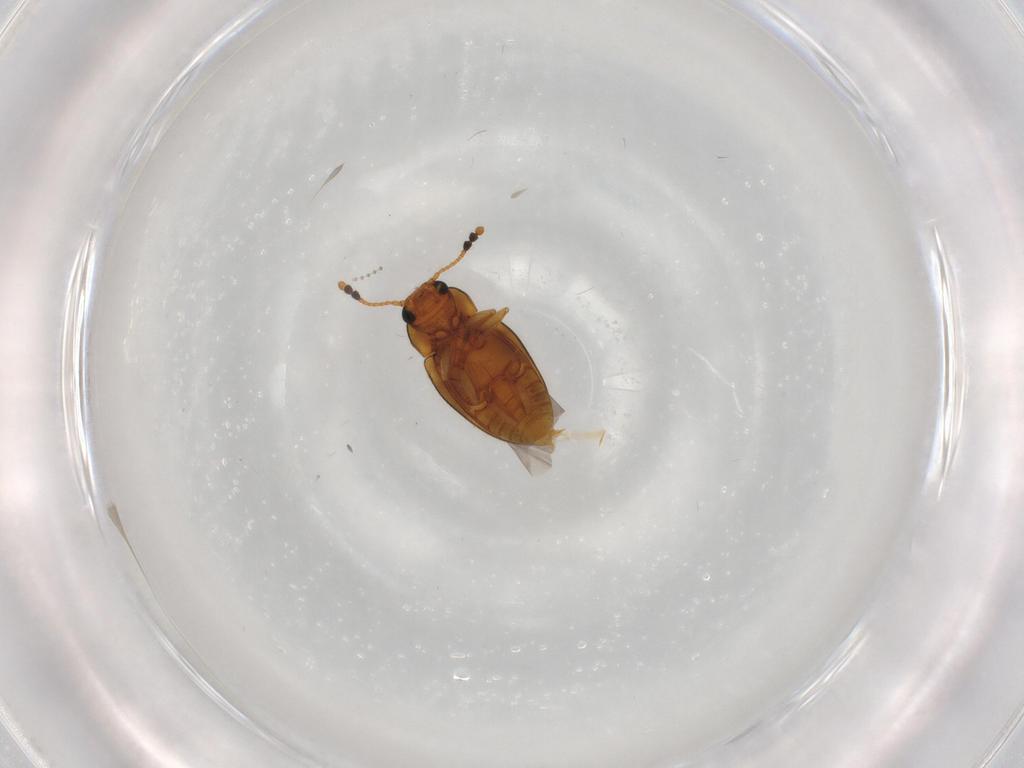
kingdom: Animalia
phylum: Arthropoda
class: Insecta
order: Coleoptera
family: Erotylidae
